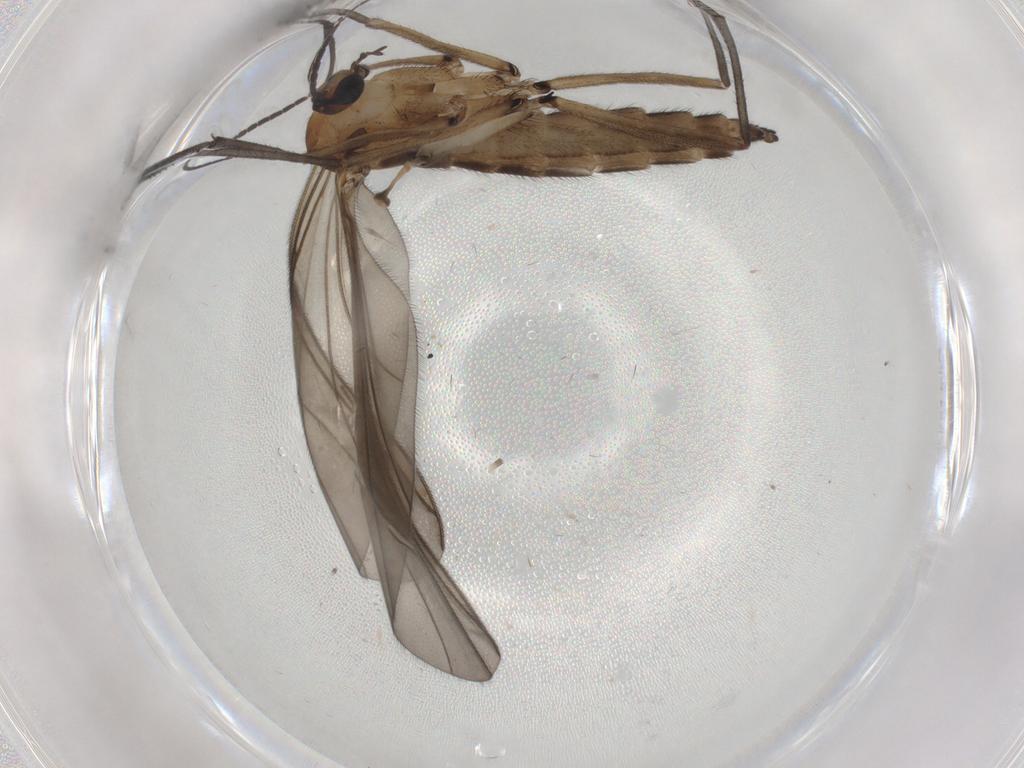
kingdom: Animalia
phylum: Arthropoda
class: Insecta
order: Diptera
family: Sciaridae
